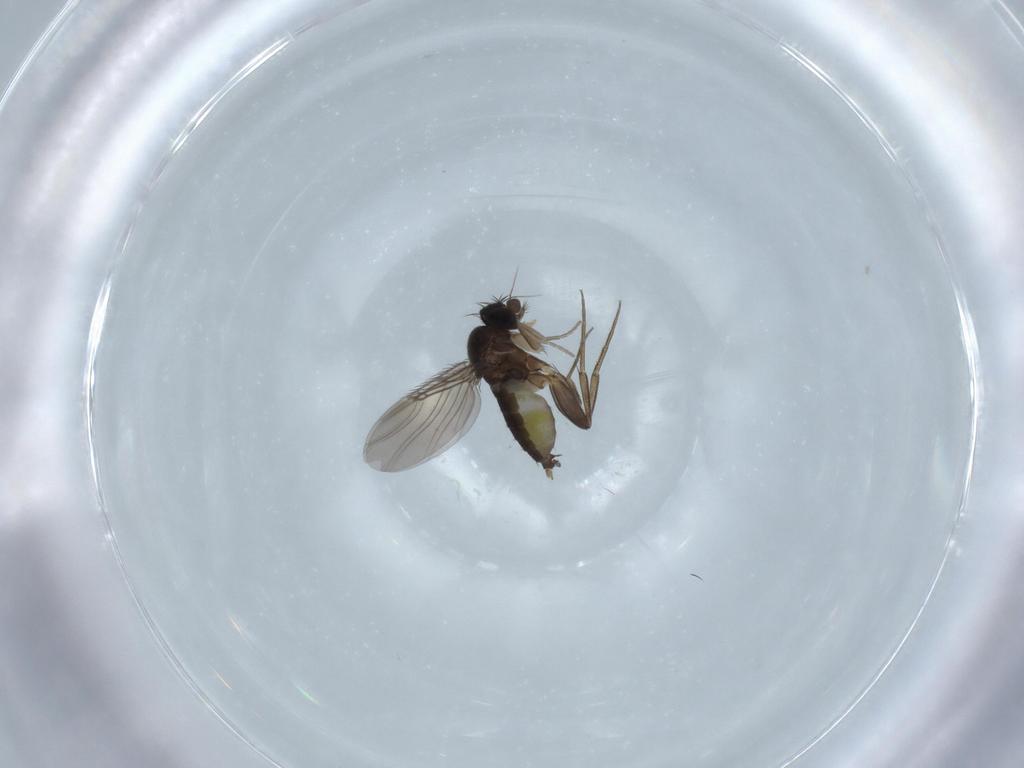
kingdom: Animalia
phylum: Arthropoda
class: Insecta
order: Diptera
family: Phoridae
